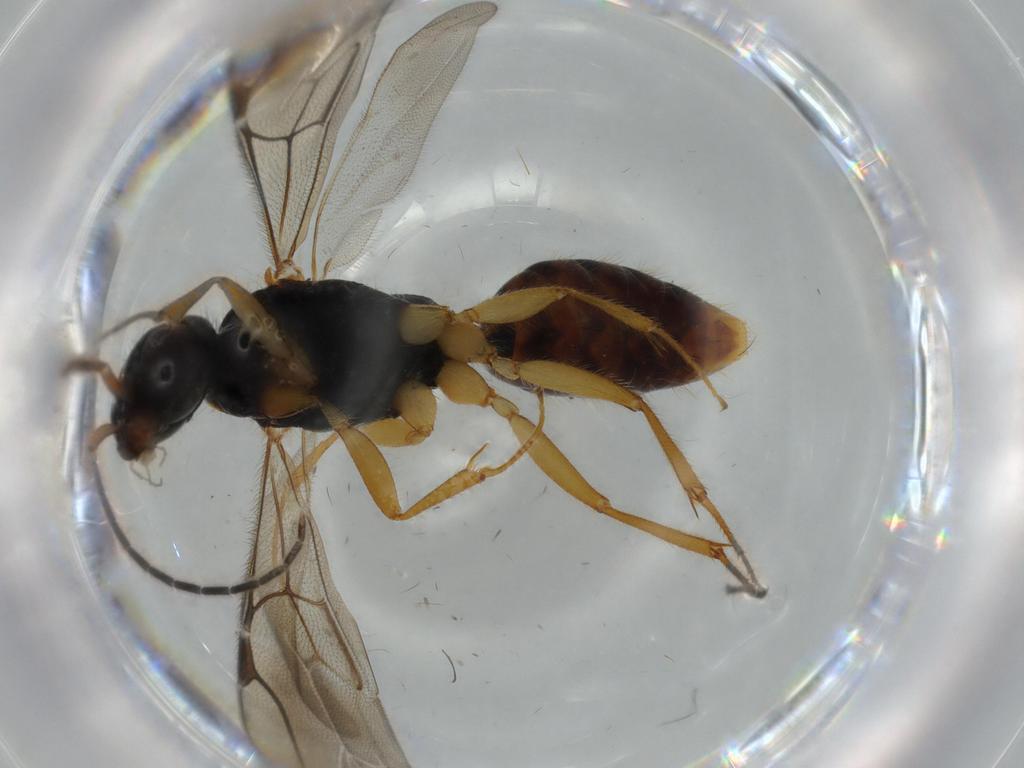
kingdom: Animalia
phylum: Arthropoda
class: Insecta
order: Hymenoptera
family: Bethylidae
